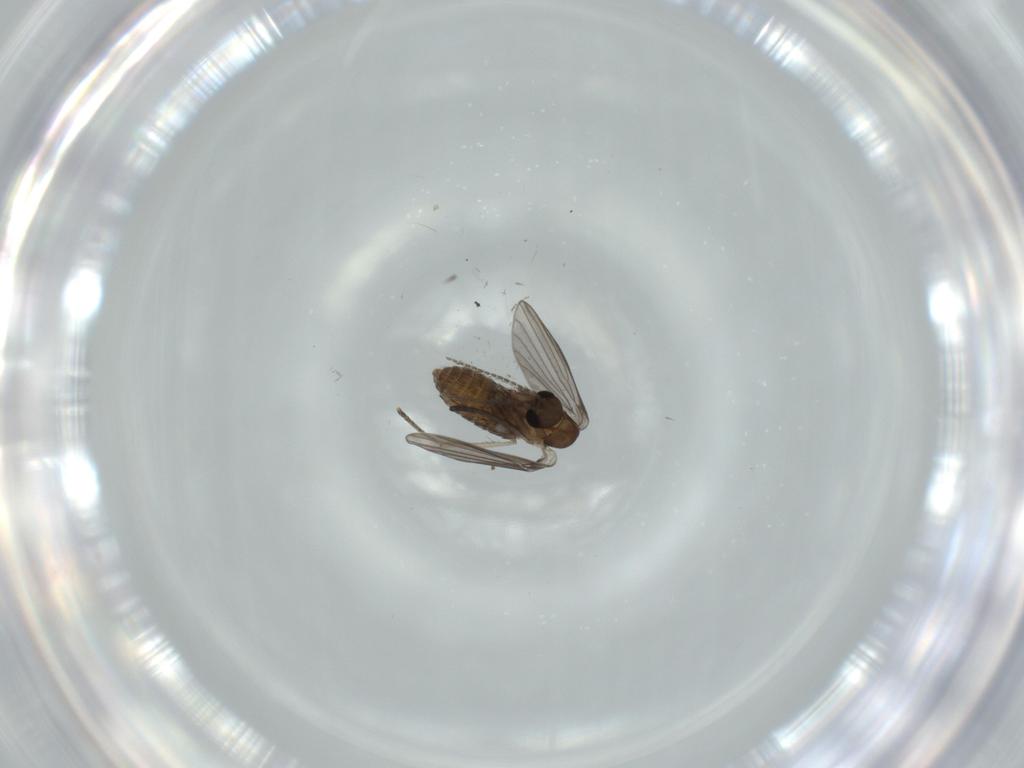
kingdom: Animalia
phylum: Arthropoda
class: Insecta
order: Diptera
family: Psychodidae
